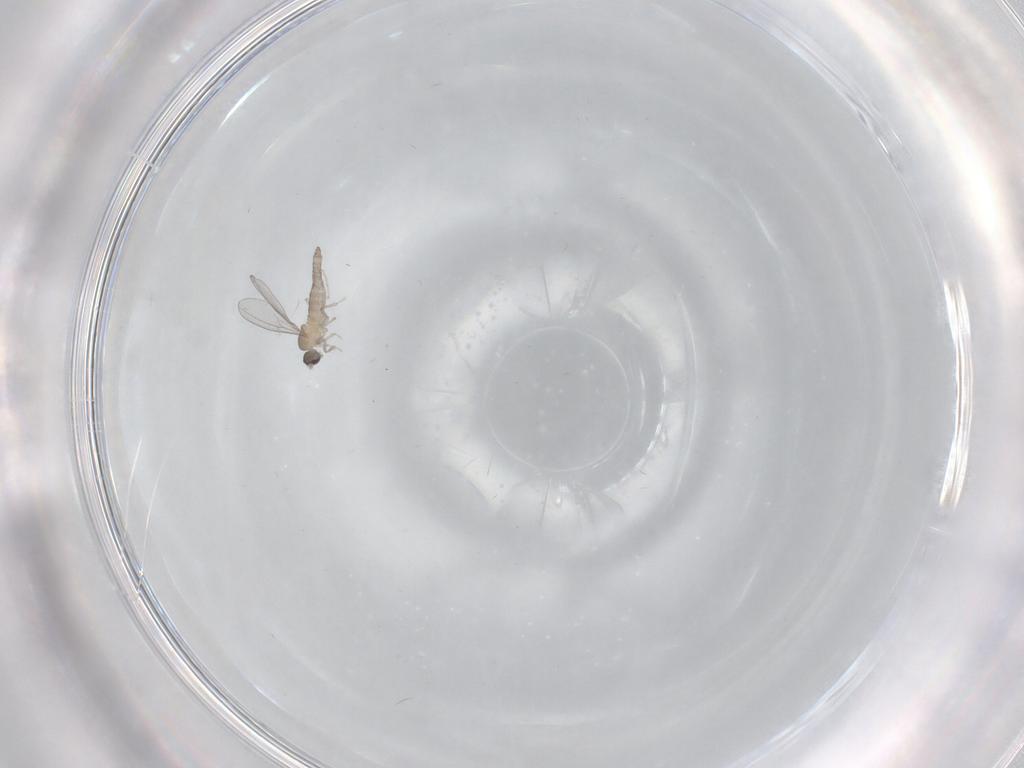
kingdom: Animalia
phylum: Arthropoda
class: Insecta
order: Diptera
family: Cecidomyiidae
